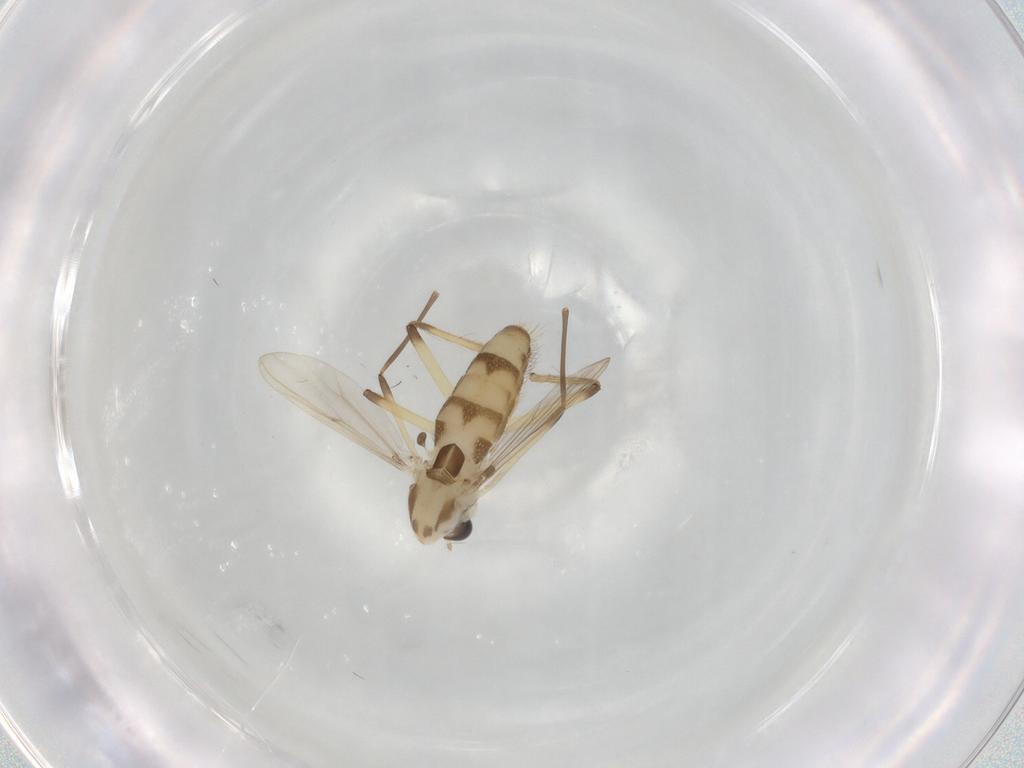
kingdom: Animalia
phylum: Arthropoda
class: Insecta
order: Diptera
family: Chironomidae
